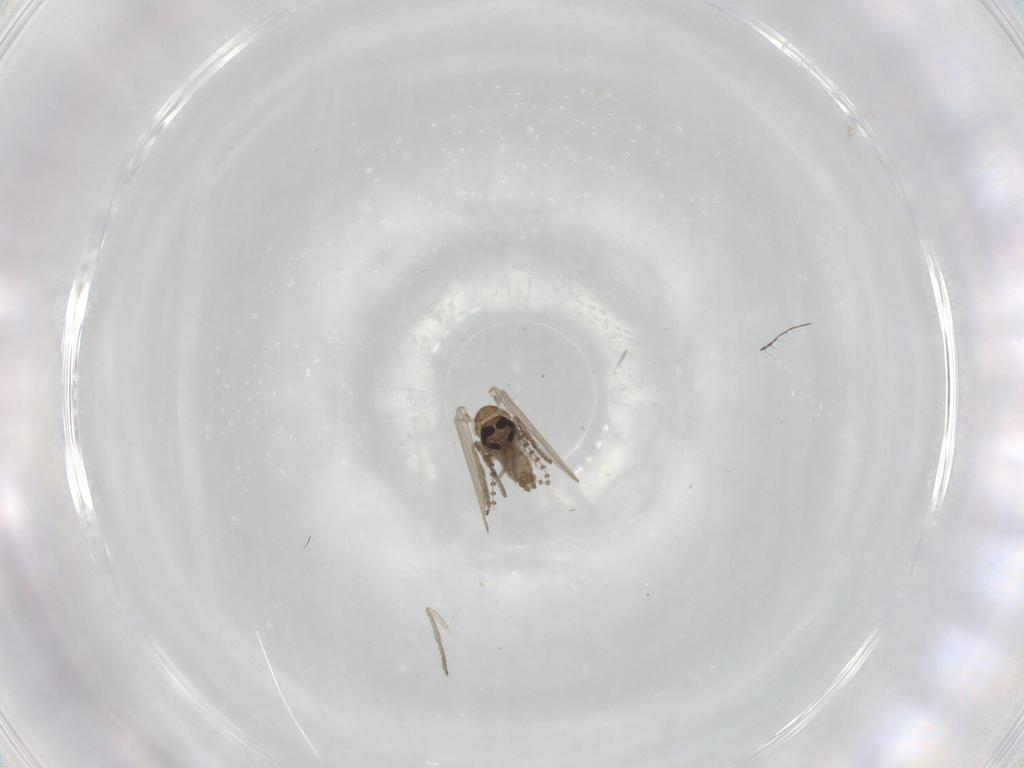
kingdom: Animalia
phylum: Arthropoda
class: Insecta
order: Diptera
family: Psychodidae
